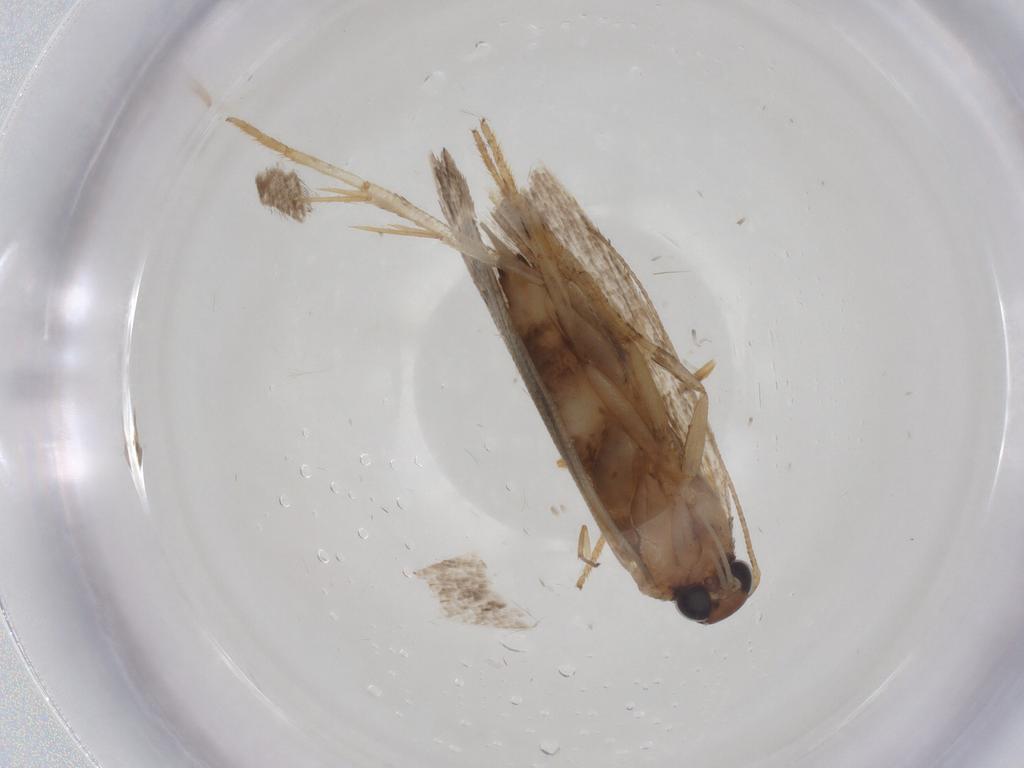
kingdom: Animalia
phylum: Arthropoda
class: Insecta
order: Lepidoptera
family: Gelechiidae
